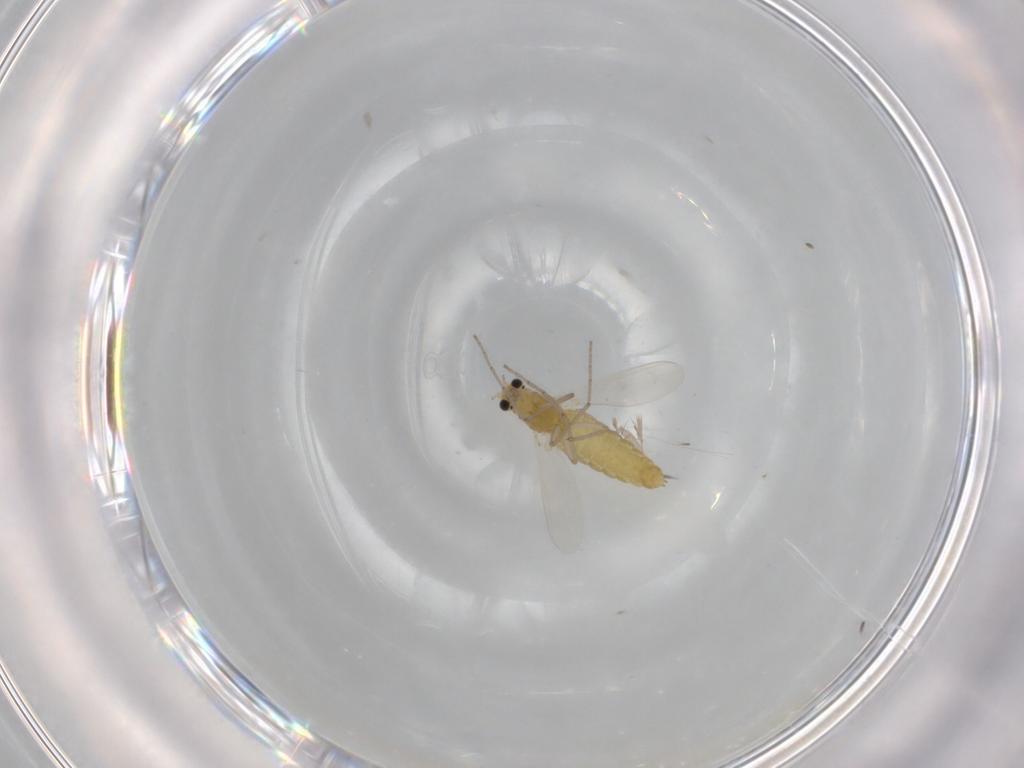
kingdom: Animalia
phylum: Arthropoda
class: Insecta
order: Diptera
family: Chironomidae
